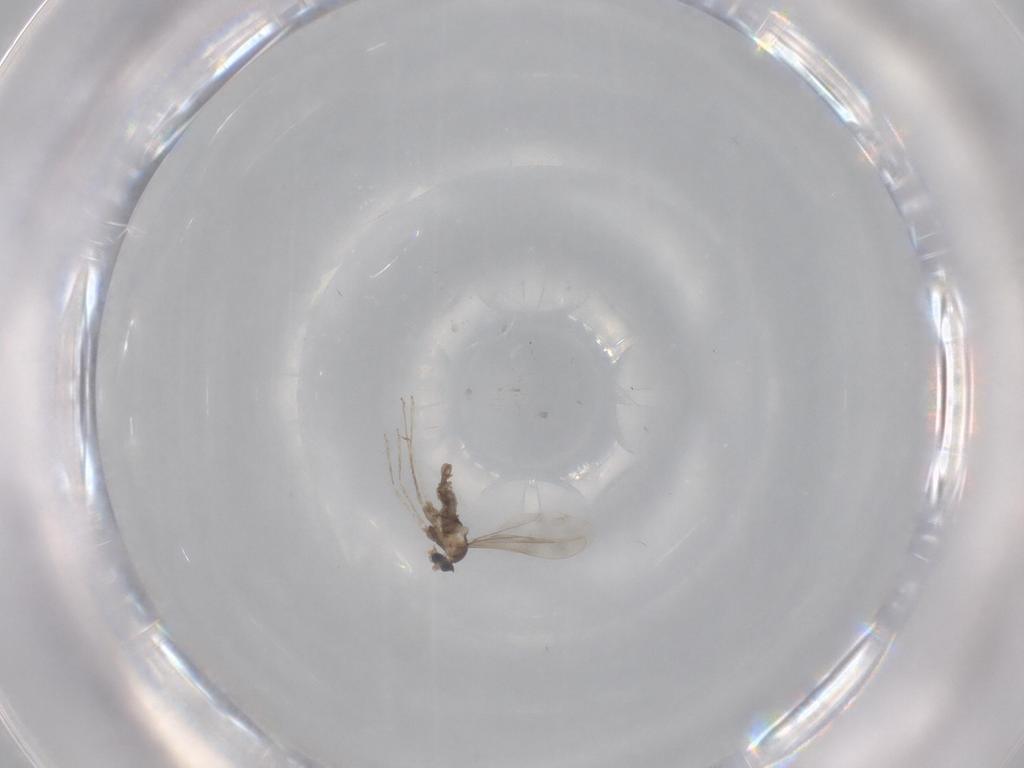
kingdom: Animalia
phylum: Arthropoda
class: Insecta
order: Diptera
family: Cecidomyiidae
